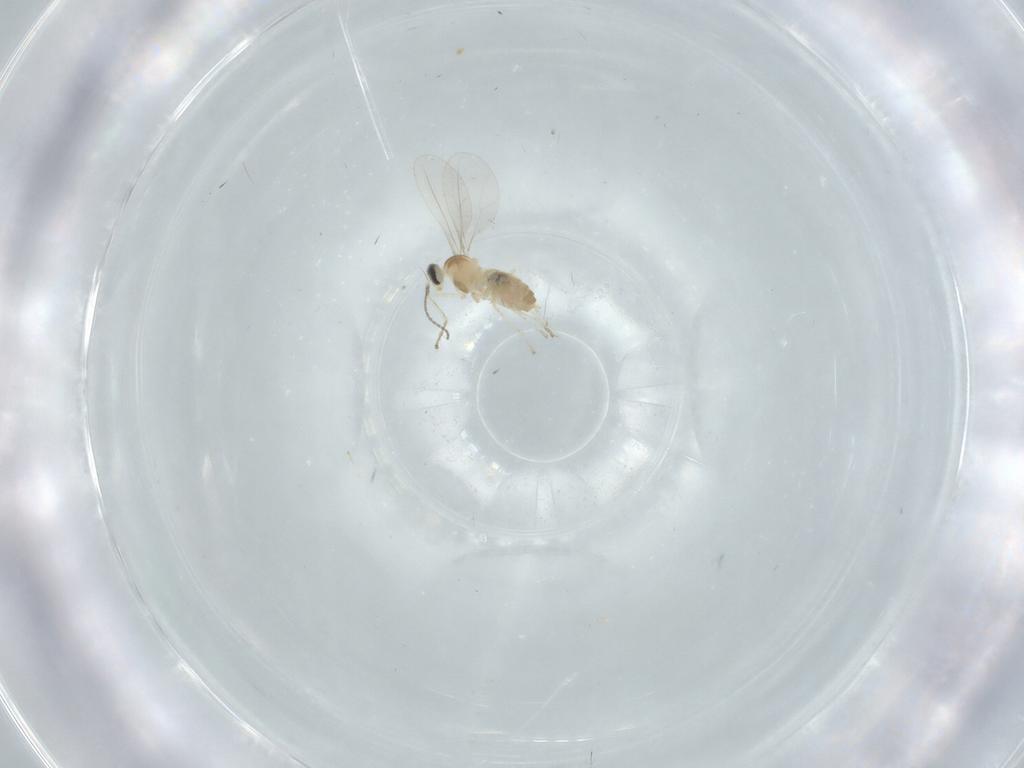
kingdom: Animalia
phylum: Arthropoda
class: Insecta
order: Diptera
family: Cecidomyiidae
